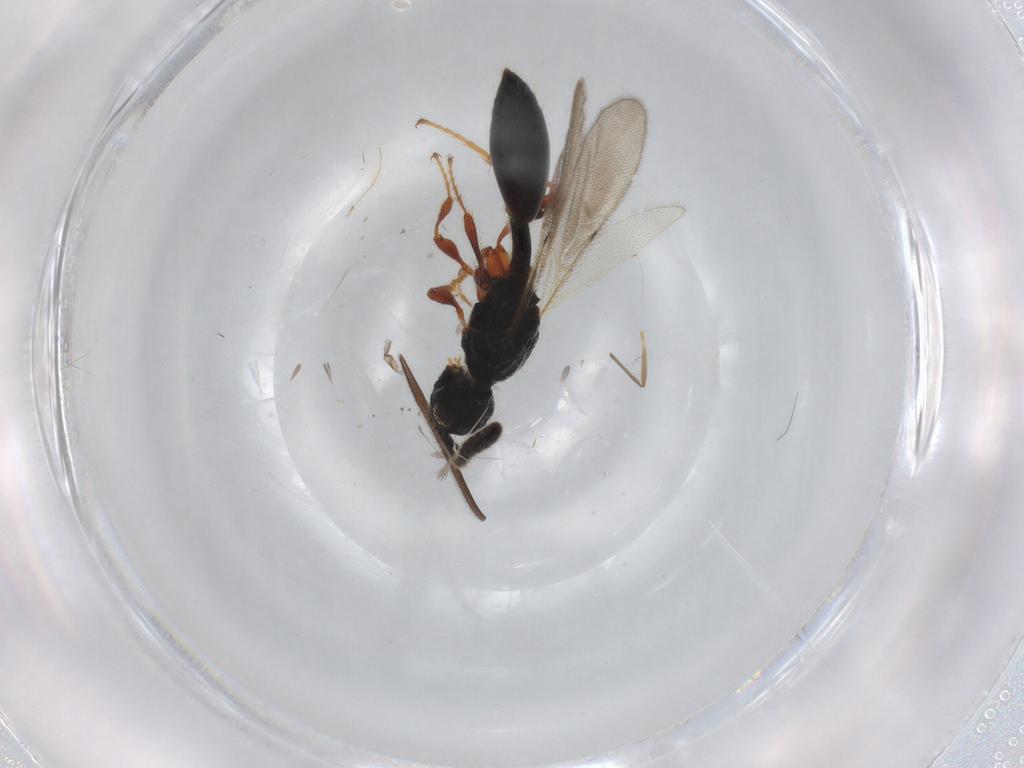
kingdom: Animalia
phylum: Arthropoda
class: Insecta
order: Hymenoptera
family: Diapriidae
